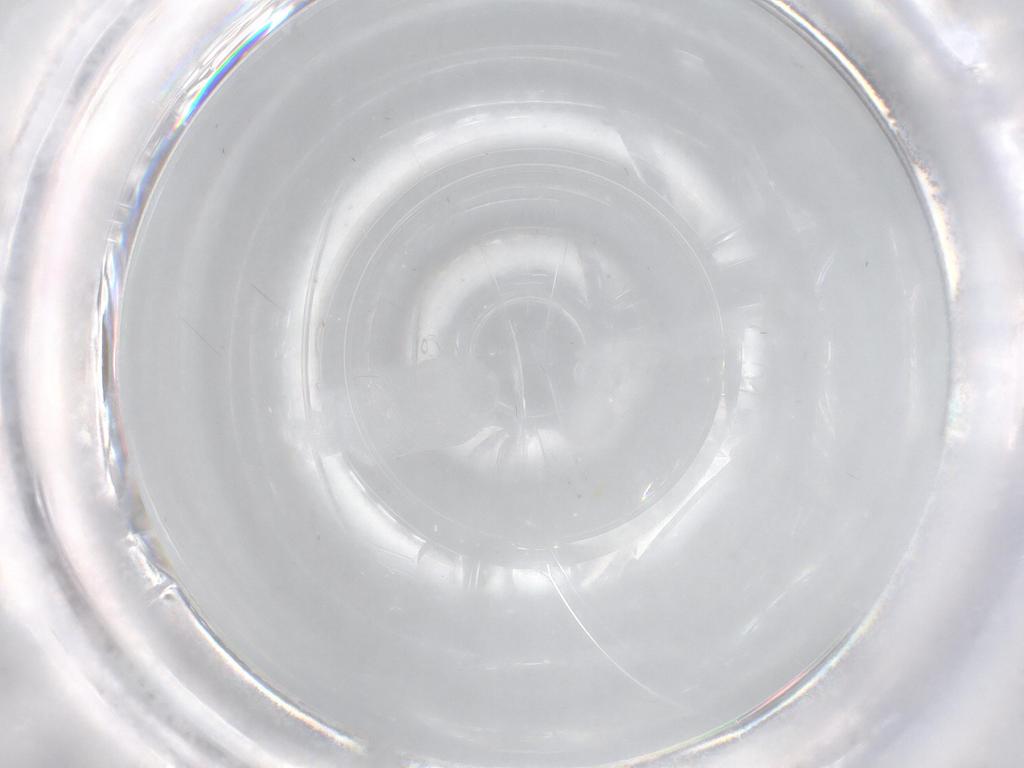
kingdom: Animalia
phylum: Arthropoda
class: Insecta
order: Diptera
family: Psychodidae
